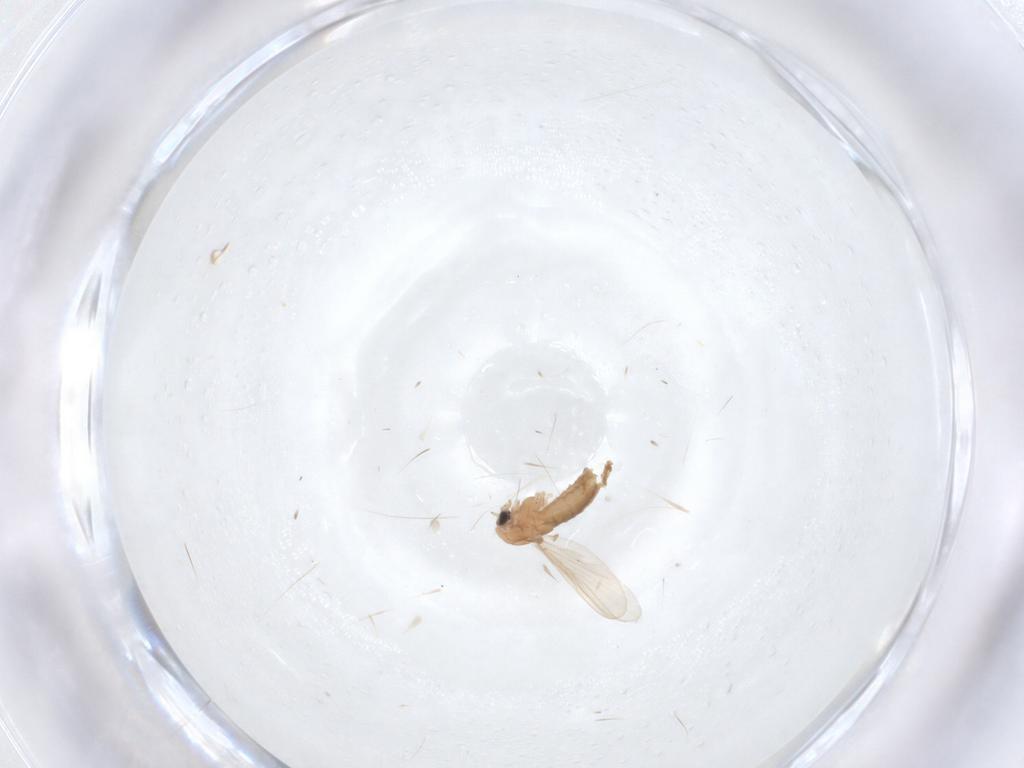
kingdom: Animalia
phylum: Arthropoda
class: Insecta
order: Diptera
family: Chironomidae
